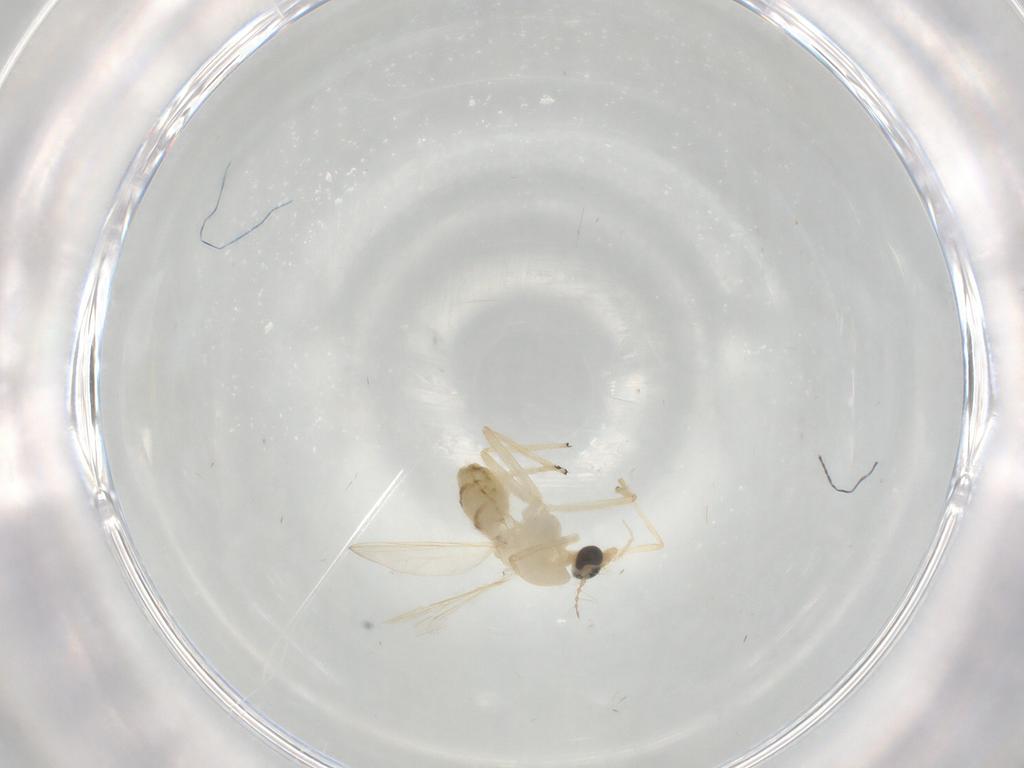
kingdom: Animalia
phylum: Arthropoda
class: Insecta
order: Diptera
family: Chironomidae
